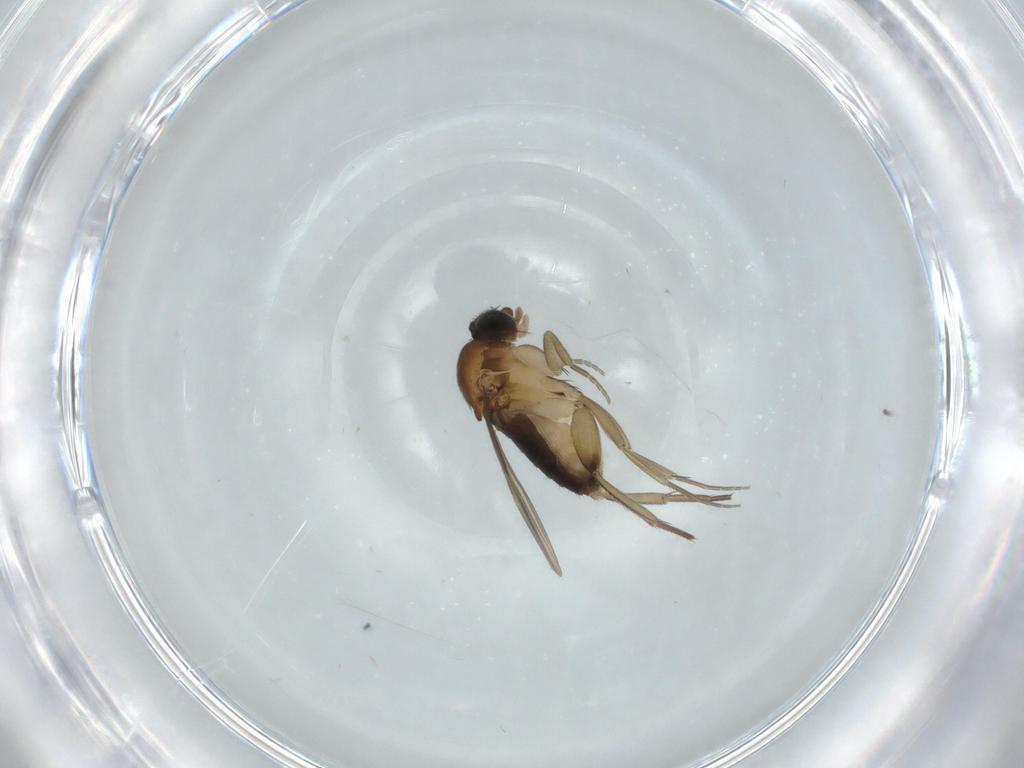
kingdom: Animalia
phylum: Arthropoda
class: Insecta
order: Diptera
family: Phoridae
